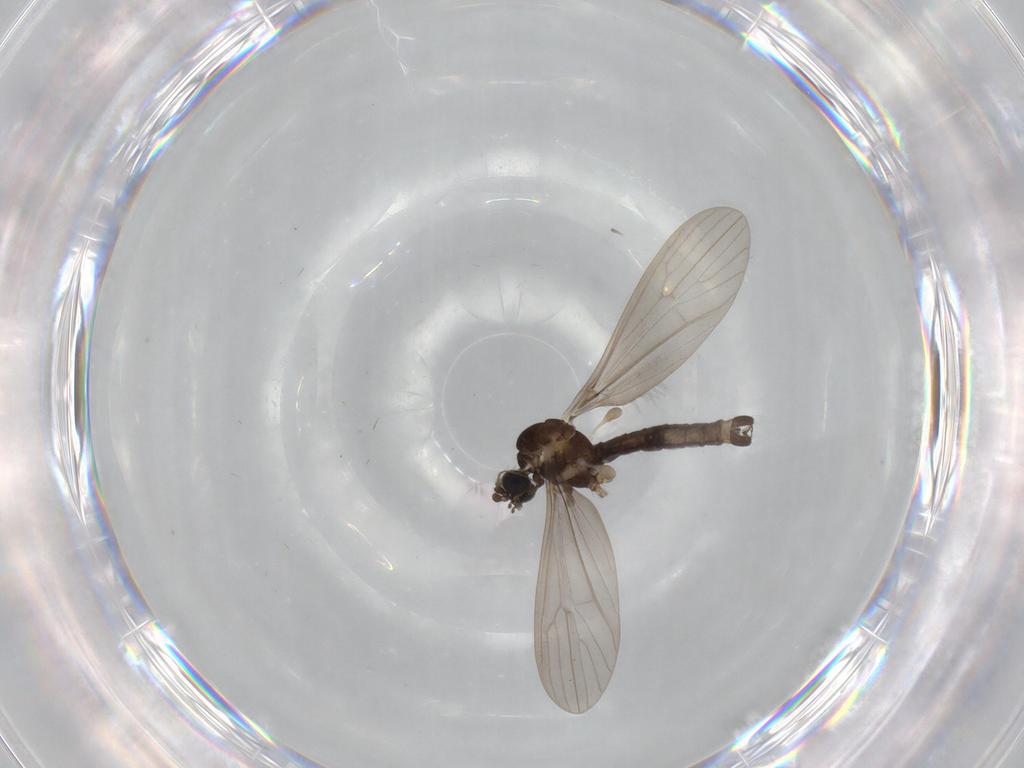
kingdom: Animalia
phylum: Arthropoda
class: Insecta
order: Diptera
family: Limoniidae
